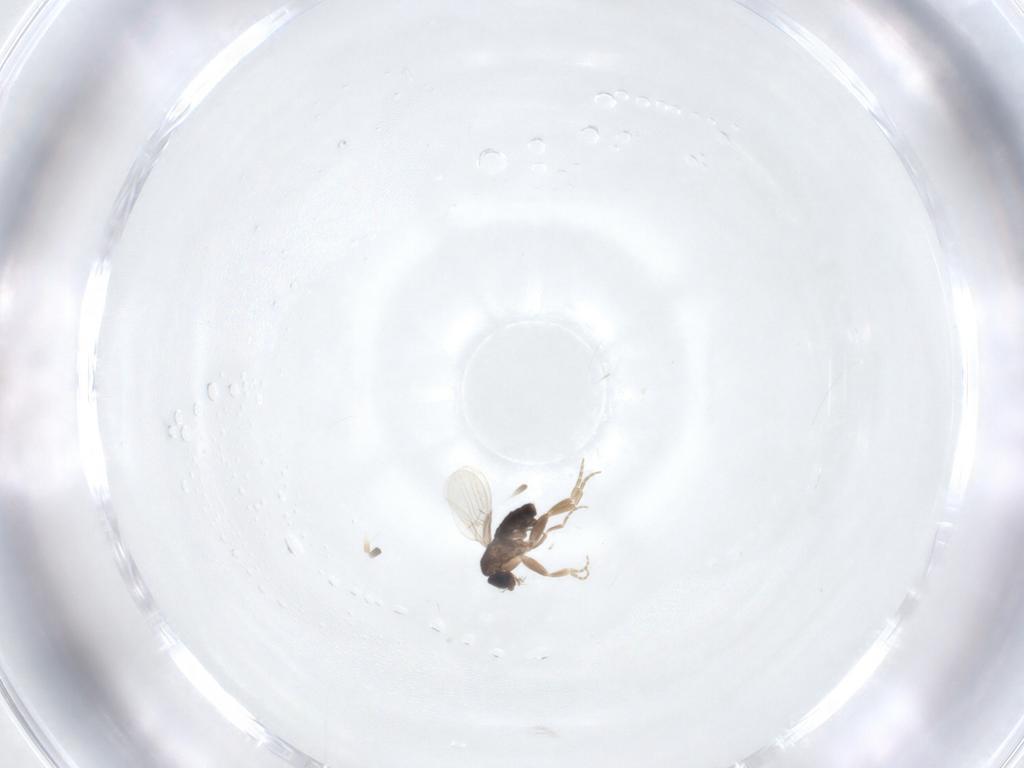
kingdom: Animalia
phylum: Arthropoda
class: Insecta
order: Diptera
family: Phoridae
